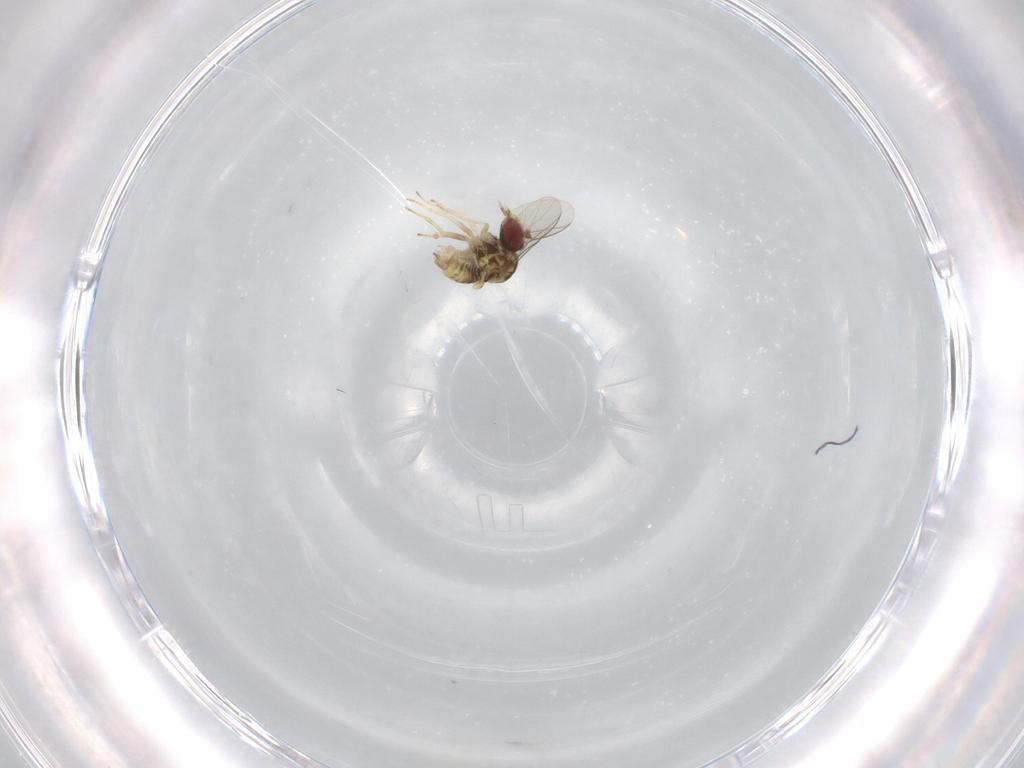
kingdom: Animalia
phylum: Arthropoda
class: Insecta
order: Diptera
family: Bombyliidae
